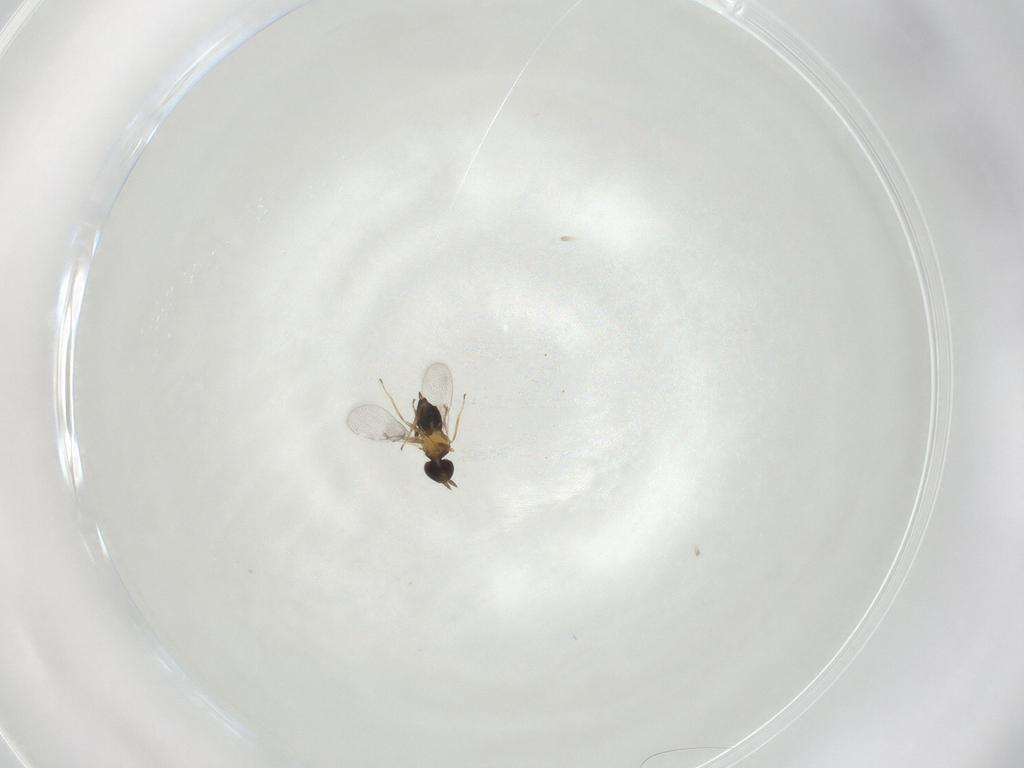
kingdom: Animalia
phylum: Arthropoda
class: Insecta
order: Hymenoptera
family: Trichogrammatidae
